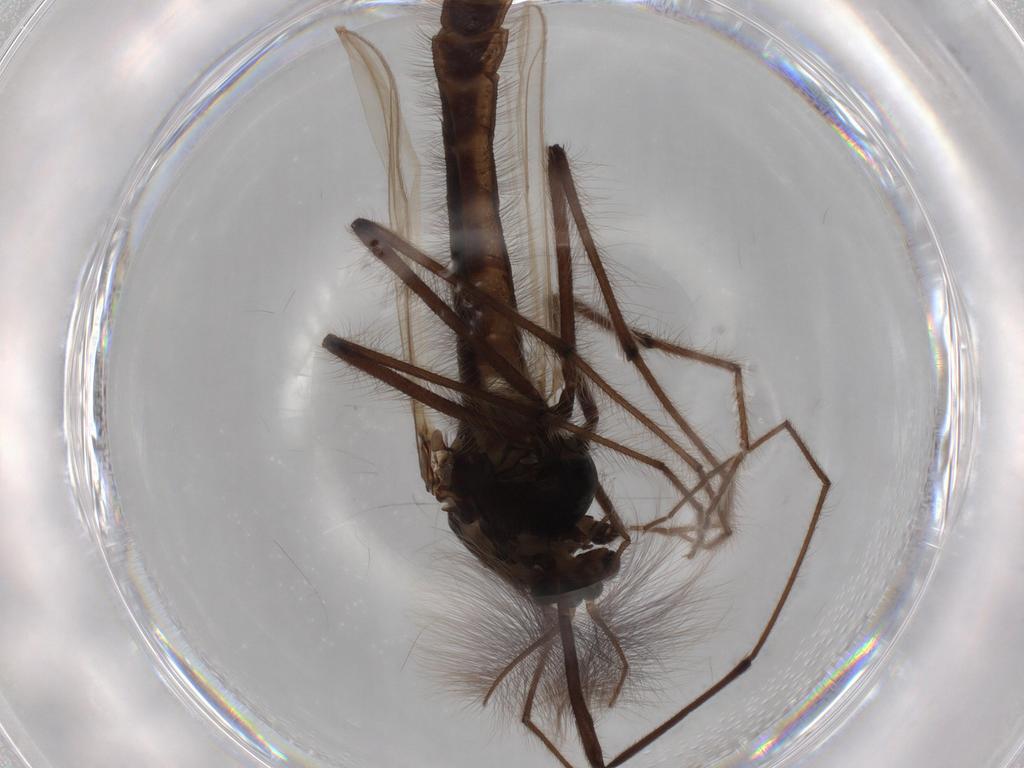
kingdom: Animalia
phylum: Arthropoda
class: Insecta
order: Diptera
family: Chironomidae
